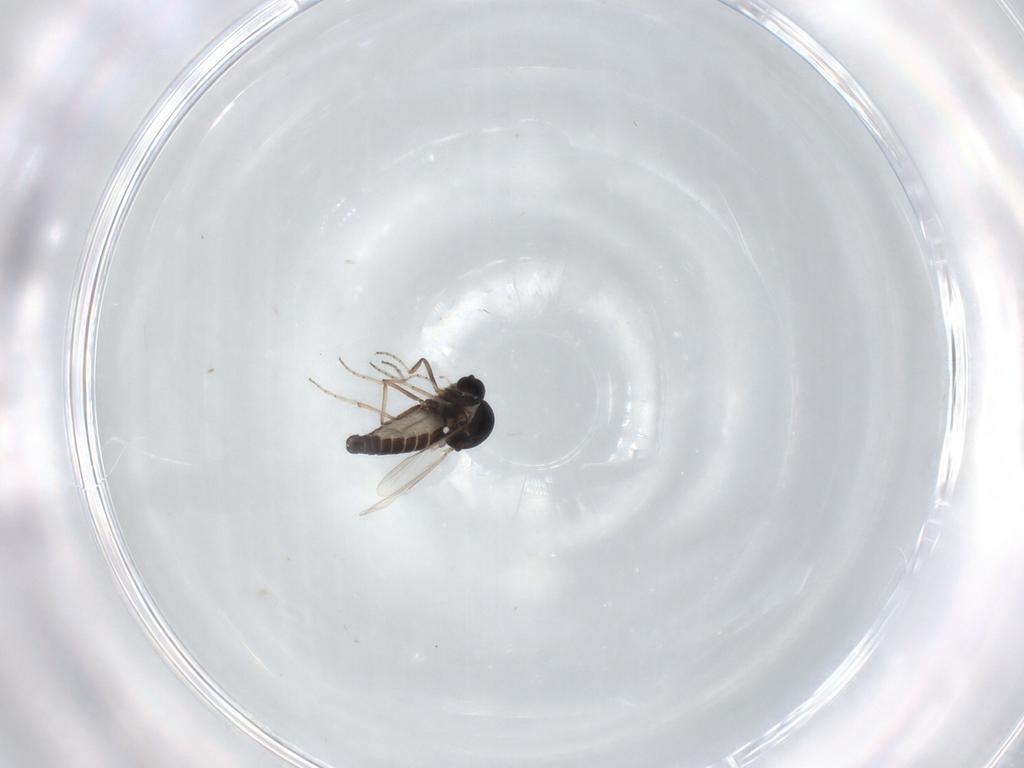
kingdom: Animalia
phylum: Arthropoda
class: Insecta
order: Diptera
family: Ceratopogonidae
